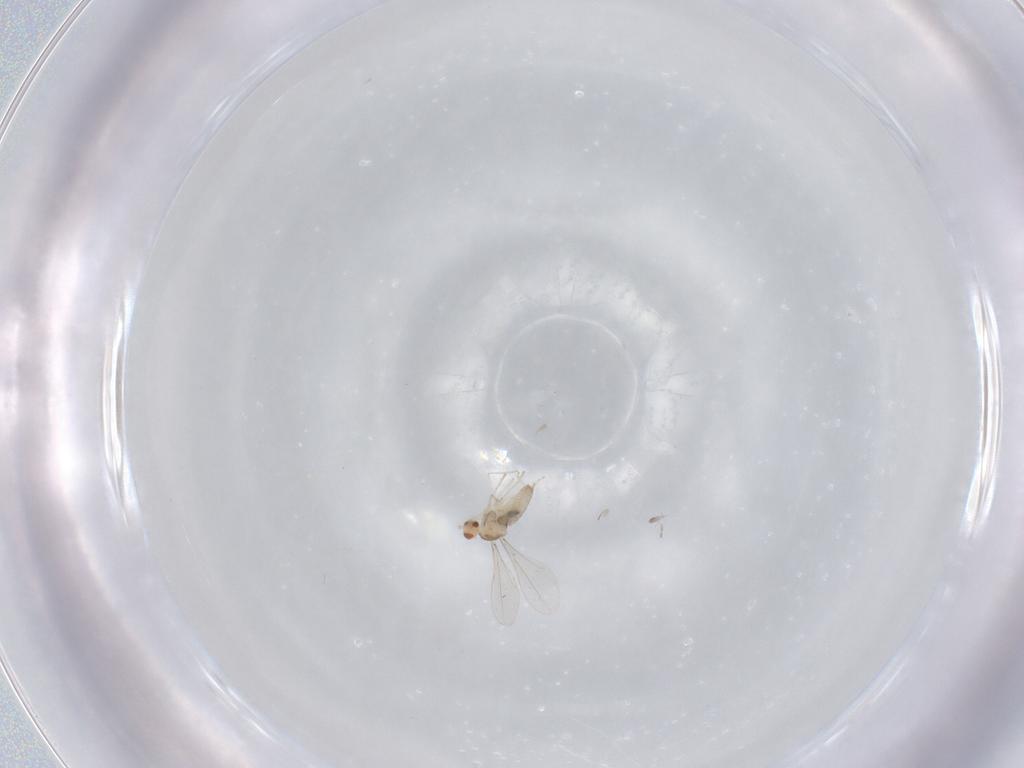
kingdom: Animalia
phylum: Arthropoda
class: Insecta
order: Diptera
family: Cecidomyiidae
